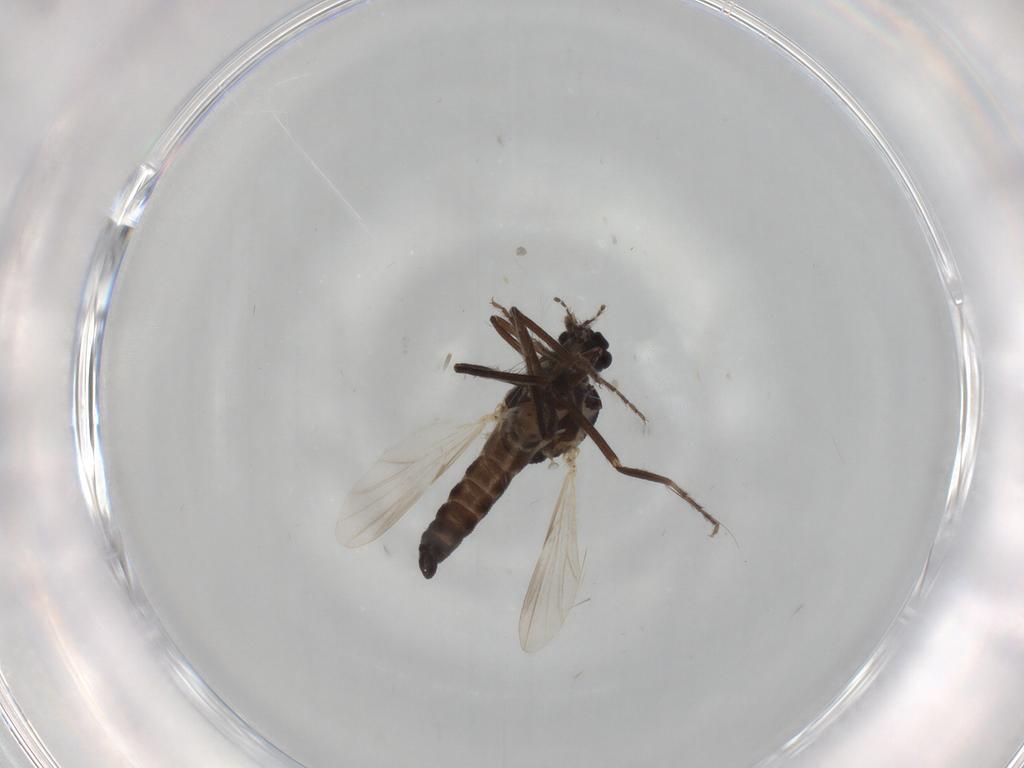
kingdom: Animalia
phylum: Arthropoda
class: Insecta
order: Diptera
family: Ceratopogonidae
